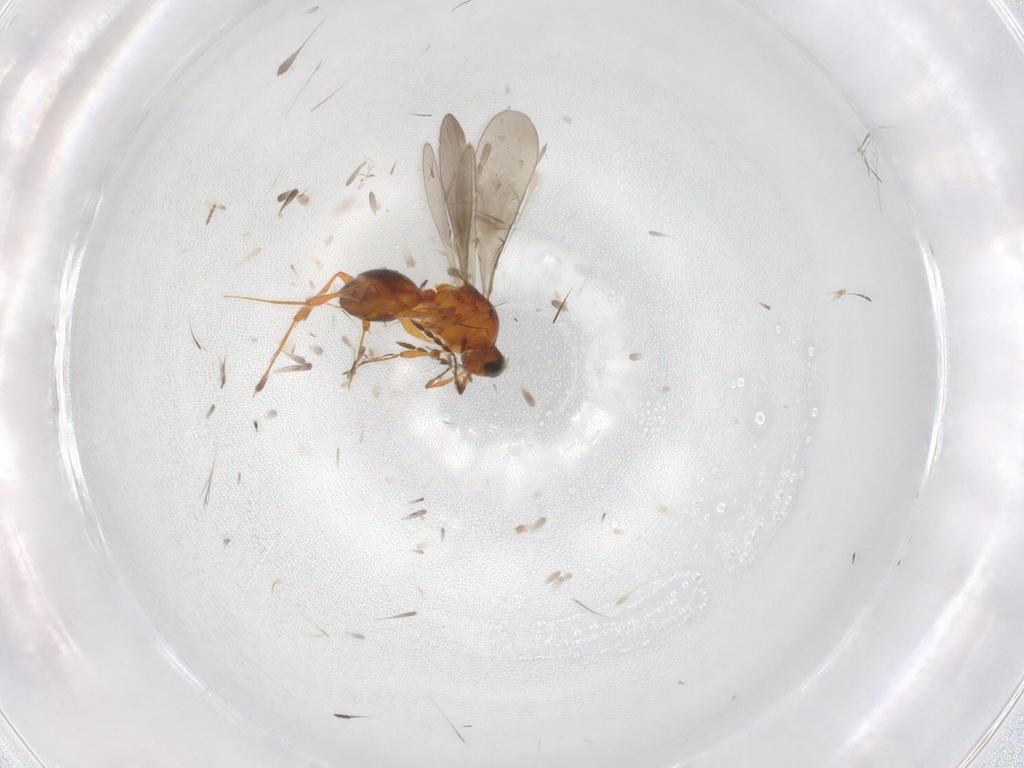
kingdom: Animalia
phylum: Arthropoda
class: Insecta
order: Hymenoptera
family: Platygastridae
